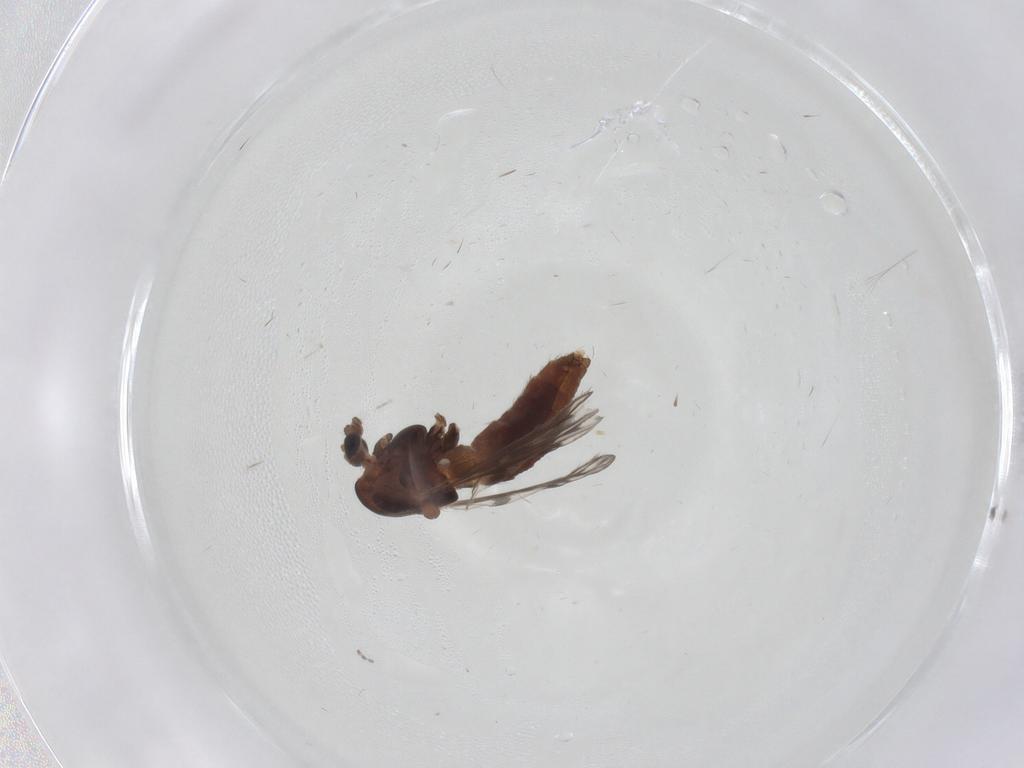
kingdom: Animalia
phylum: Arthropoda
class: Insecta
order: Diptera
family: Chironomidae
